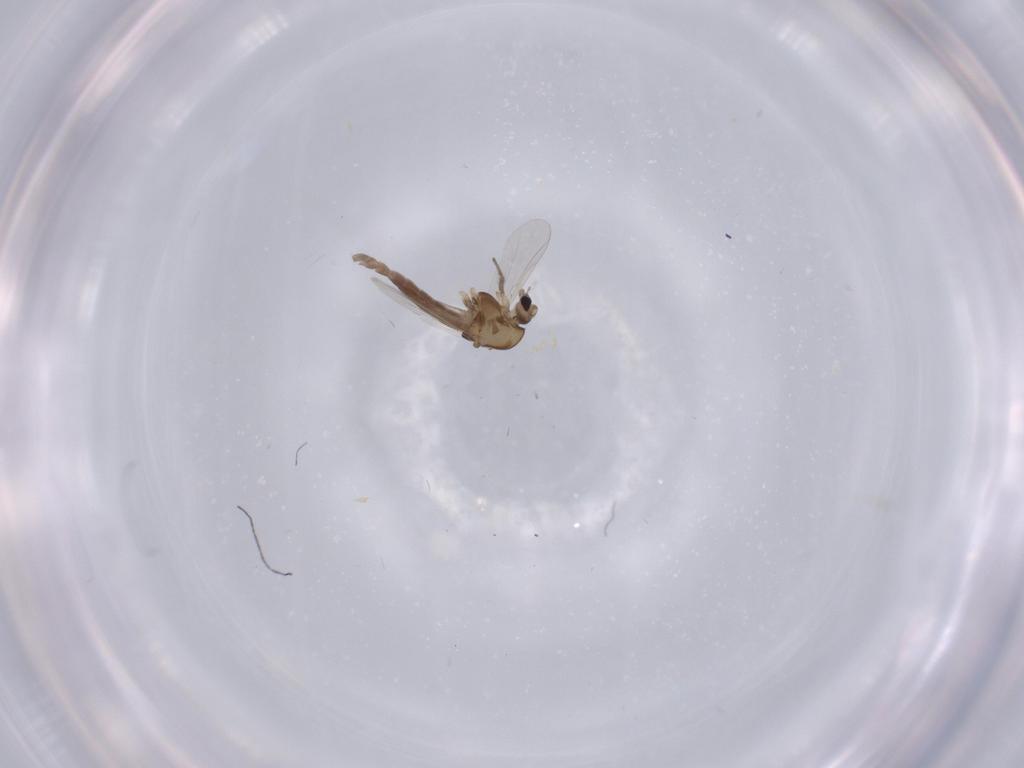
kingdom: Animalia
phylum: Arthropoda
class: Insecta
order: Diptera
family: Chironomidae
